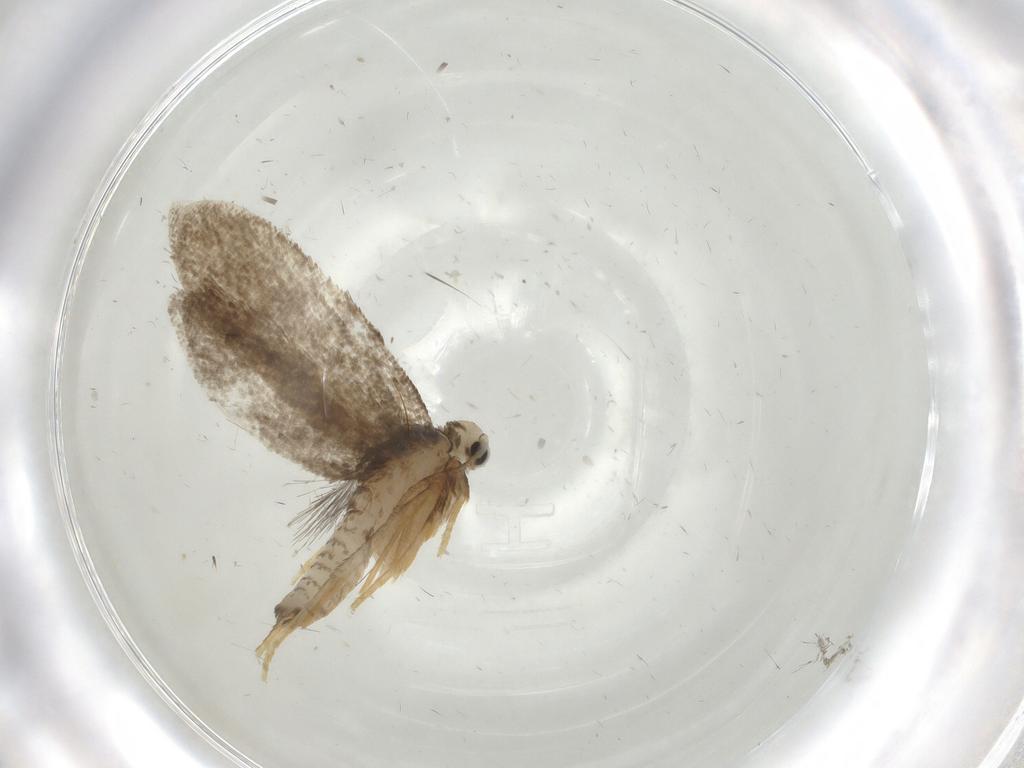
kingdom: Animalia
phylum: Arthropoda
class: Insecta
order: Lepidoptera
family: Psychidae
